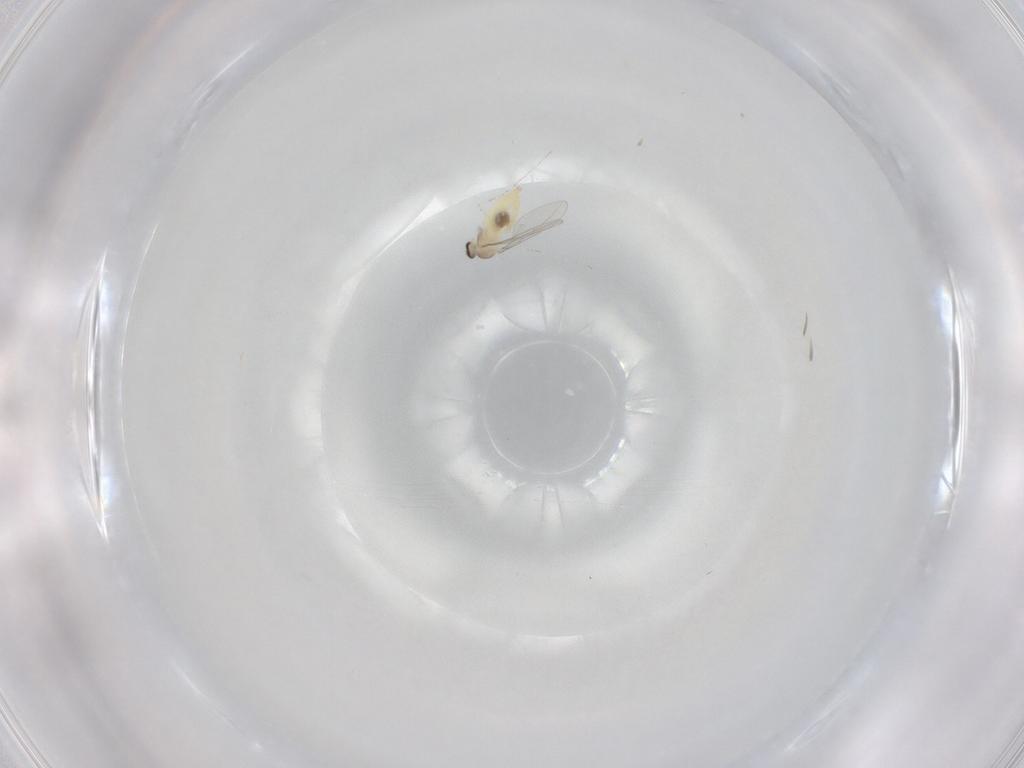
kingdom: Animalia
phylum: Arthropoda
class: Insecta
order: Diptera
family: Cecidomyiidae
